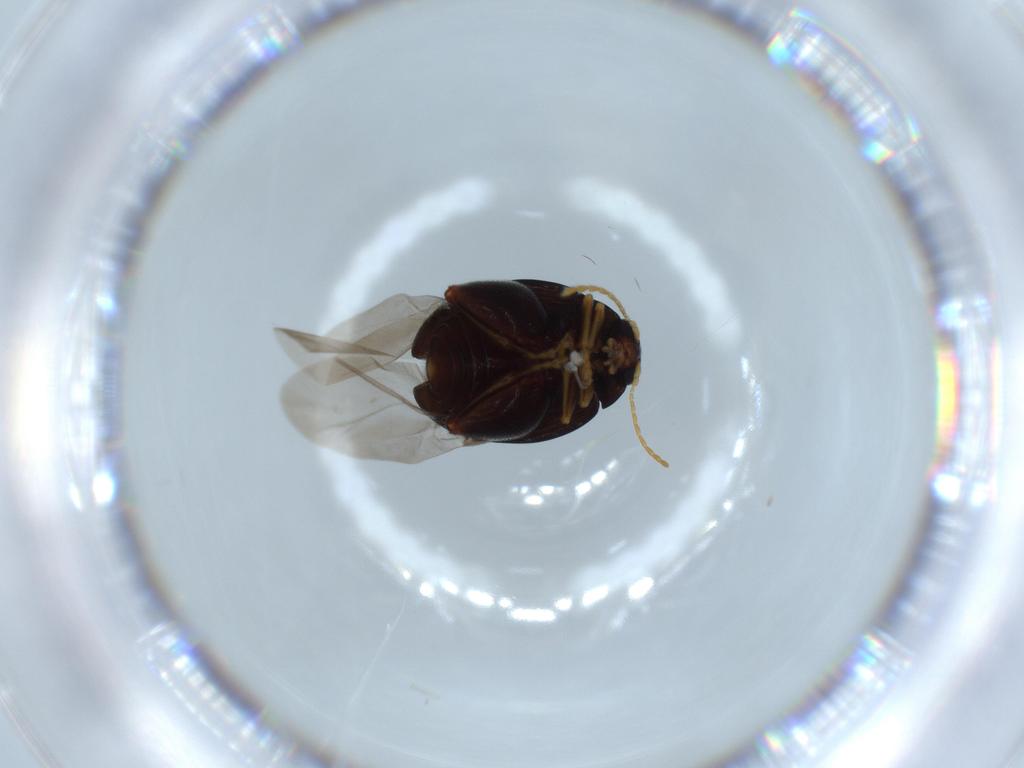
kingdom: Animalia
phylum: Arthropoda
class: Insecta
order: Coleoptera
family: Chrysomelidae
